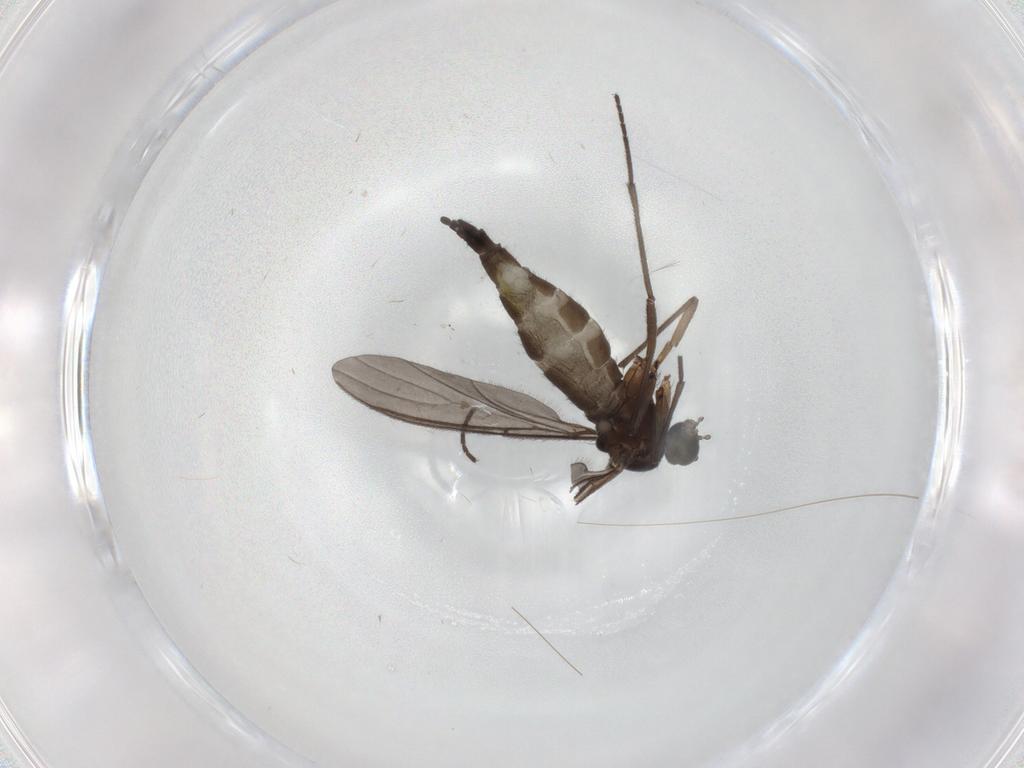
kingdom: Animalia
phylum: Arthropoda
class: Insecta
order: Diptera
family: Sciaridae
